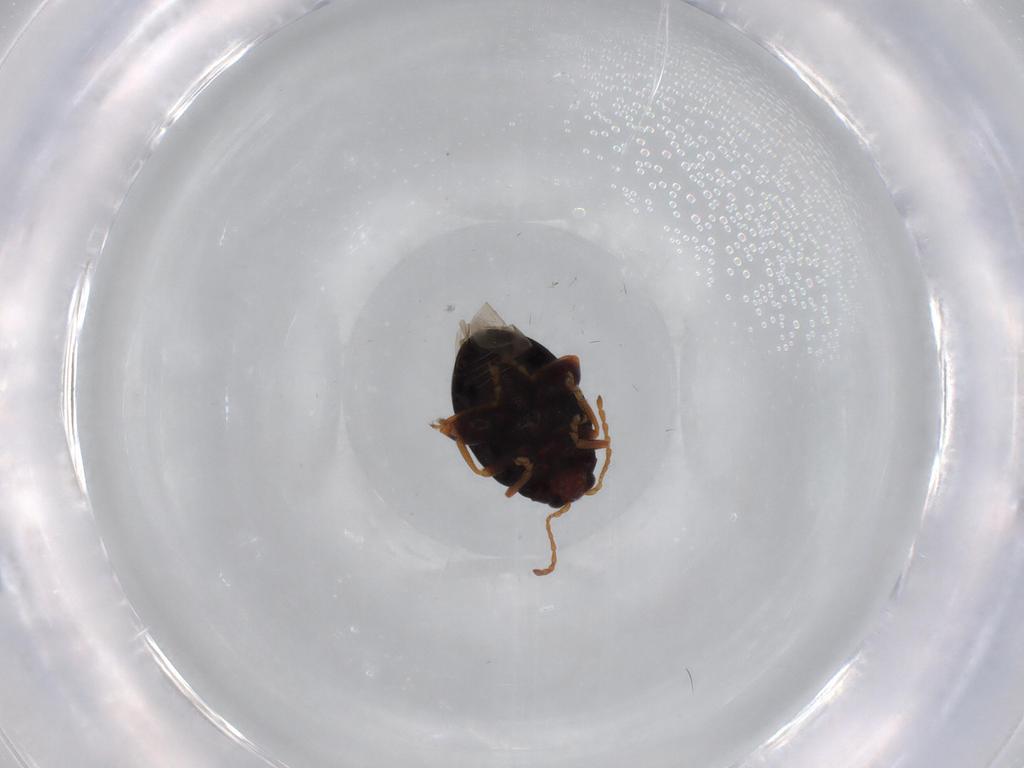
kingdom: Animalia
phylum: Arthropoda
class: Insecta
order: Coleoptera
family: Chrysomelidae
